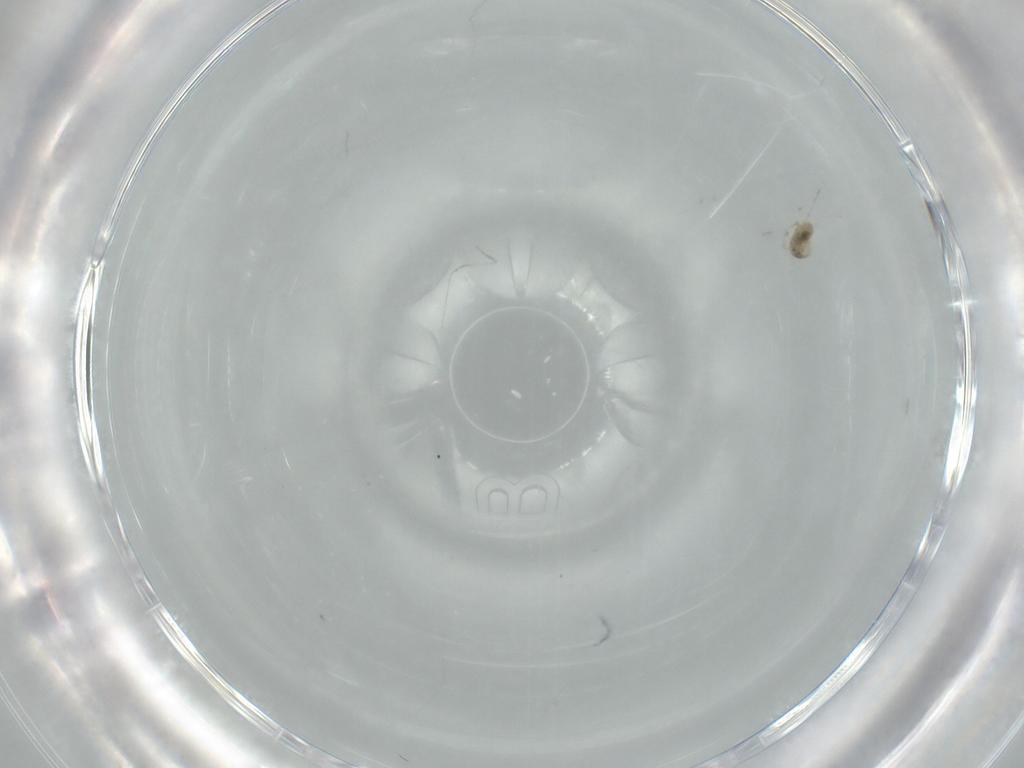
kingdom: Animalia
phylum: Arthropoda
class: Insecta
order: Diptera
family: Cecidomyiidae
